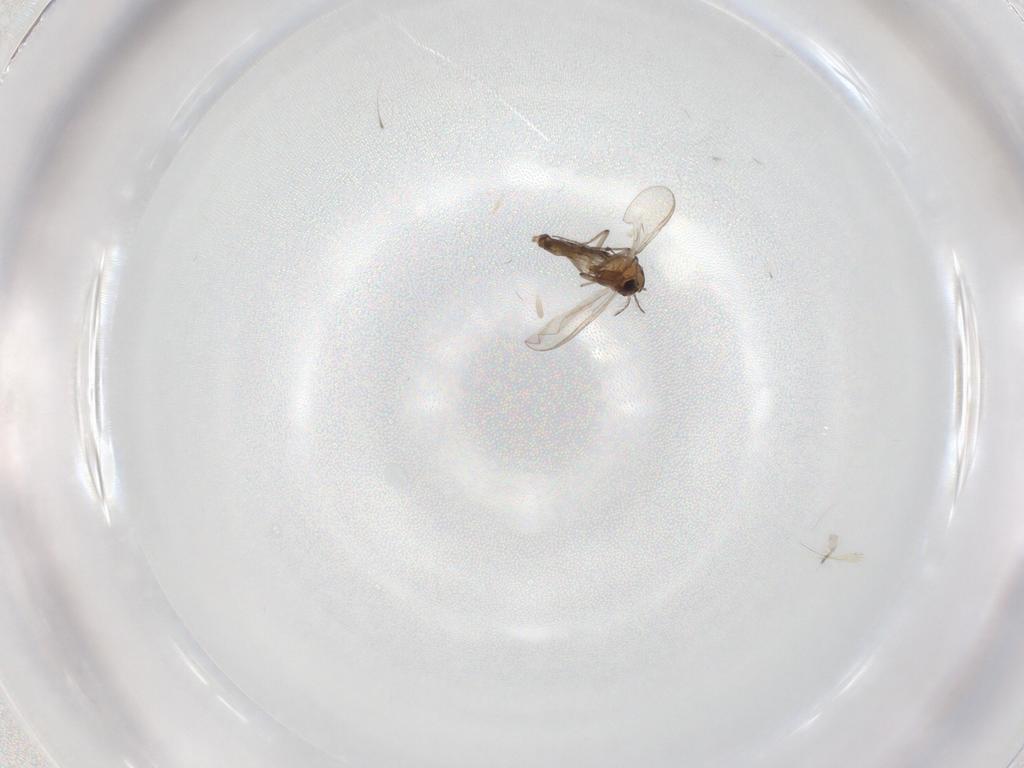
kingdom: Animalia
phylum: Arthropoda
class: Insecta
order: Diptera
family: Chironomidae
